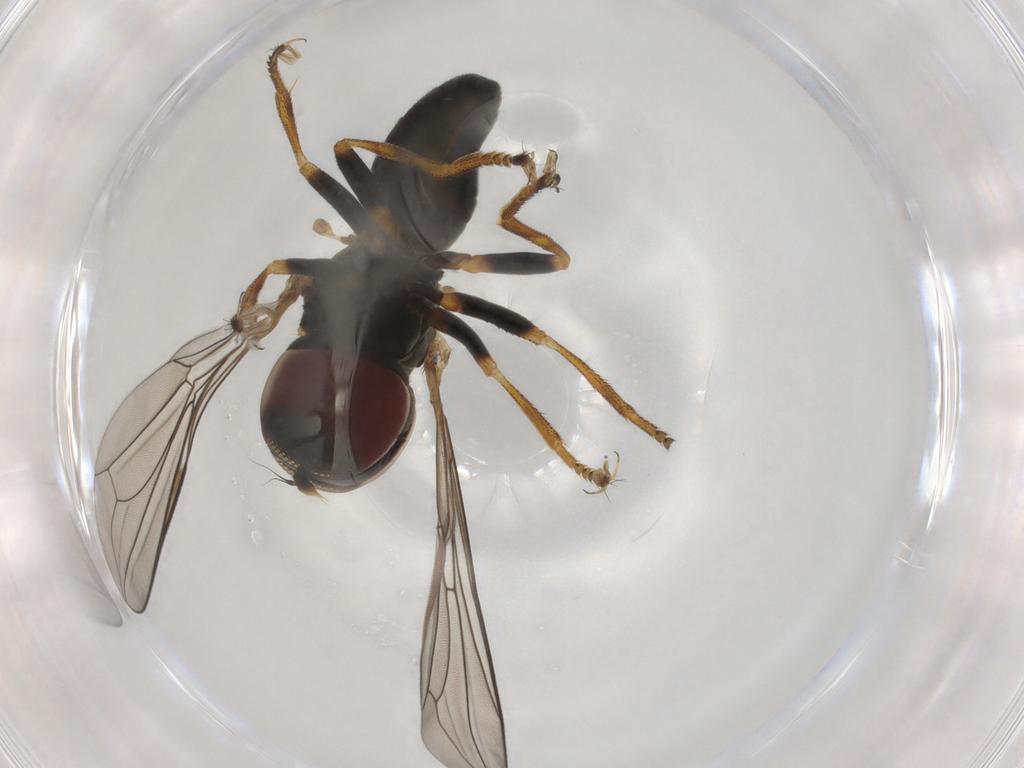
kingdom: Animalia
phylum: Arthropoda
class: Insecta
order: Diptera
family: Pipunculidae
